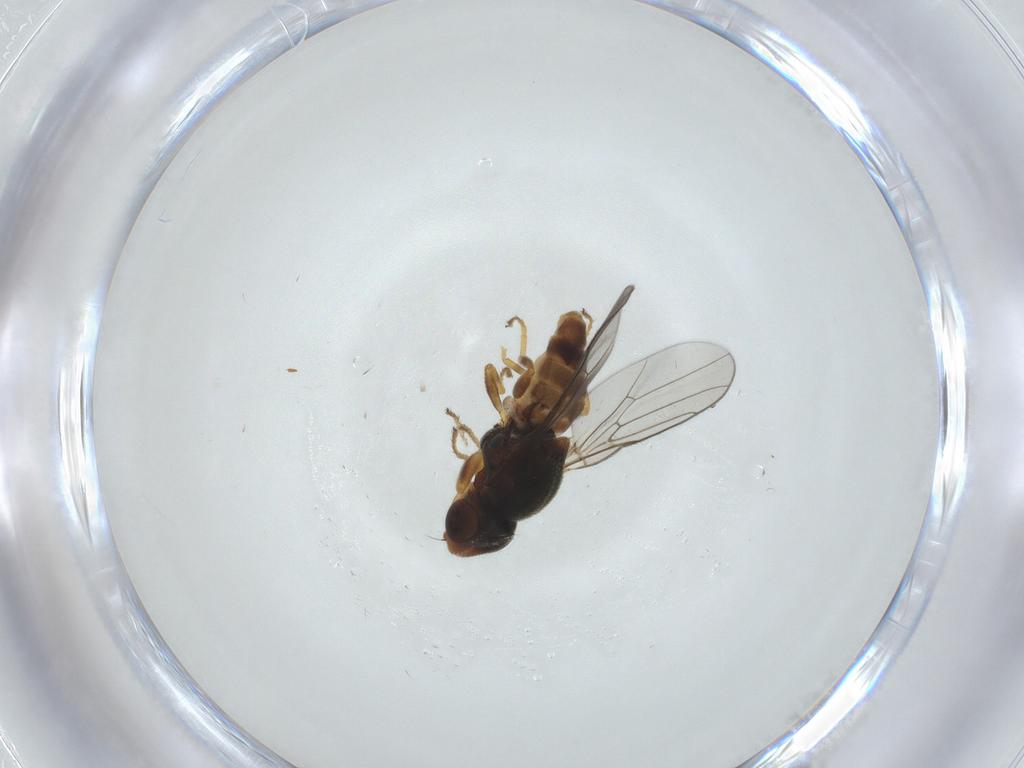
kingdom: Animalia
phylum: Arthropoda
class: Insecta
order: Diptera
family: Chloropidae
